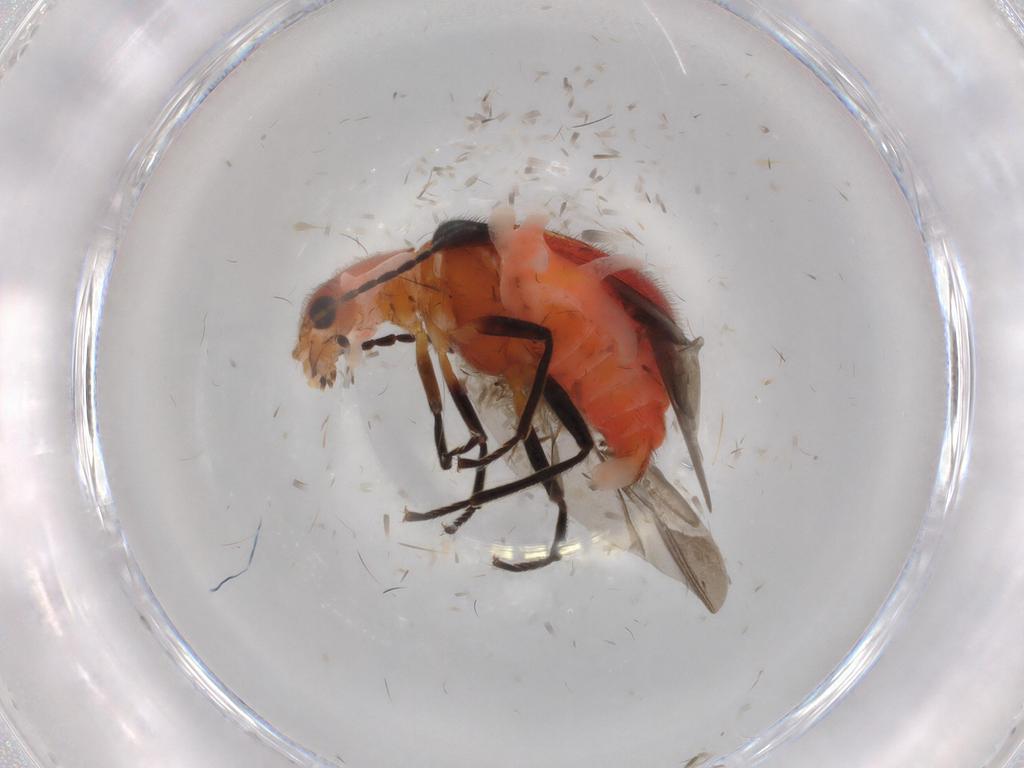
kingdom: Animalia
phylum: Arthropoda
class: Insecta
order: Coleoptera
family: Melyridae
